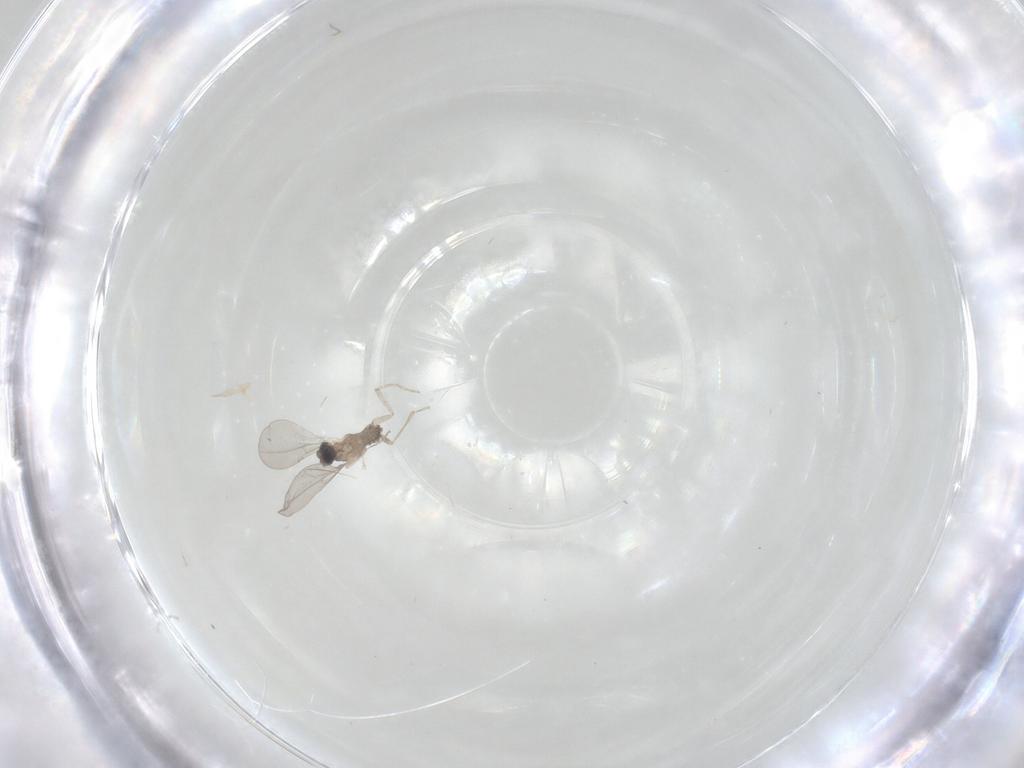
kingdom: Animalia
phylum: Arthropoda
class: Insecta
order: Diptera
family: Cecidomyiidae
